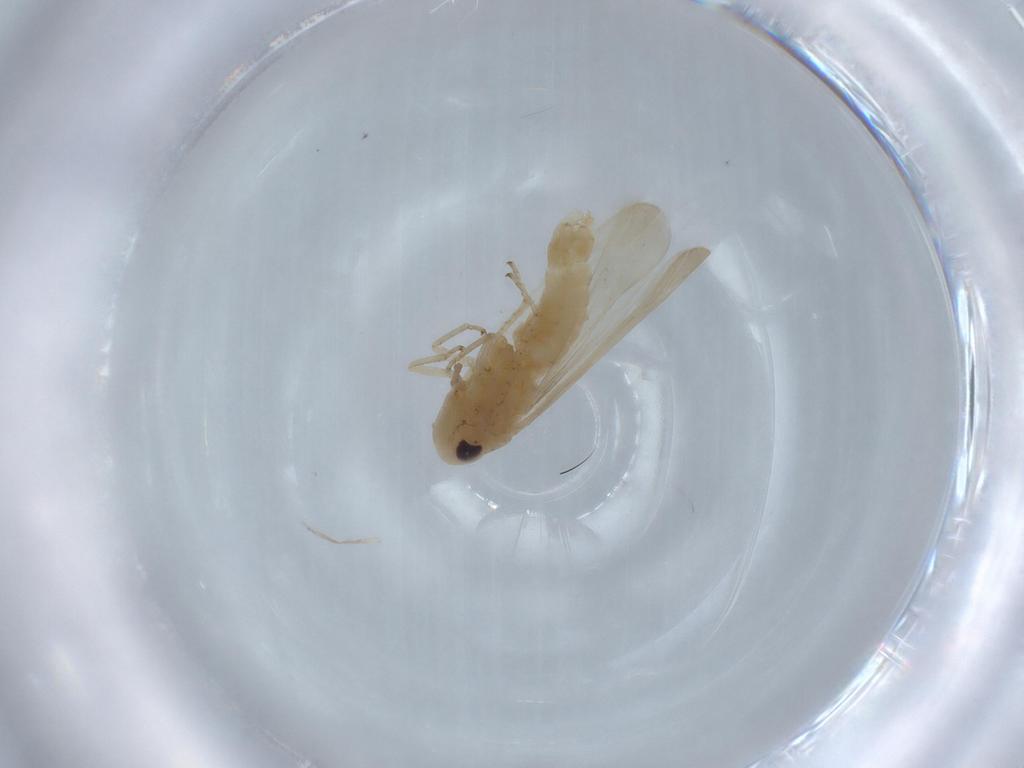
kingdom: Animalia
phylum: Arthropoda
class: Insecta
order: Hemiptera
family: Cicadellidae
